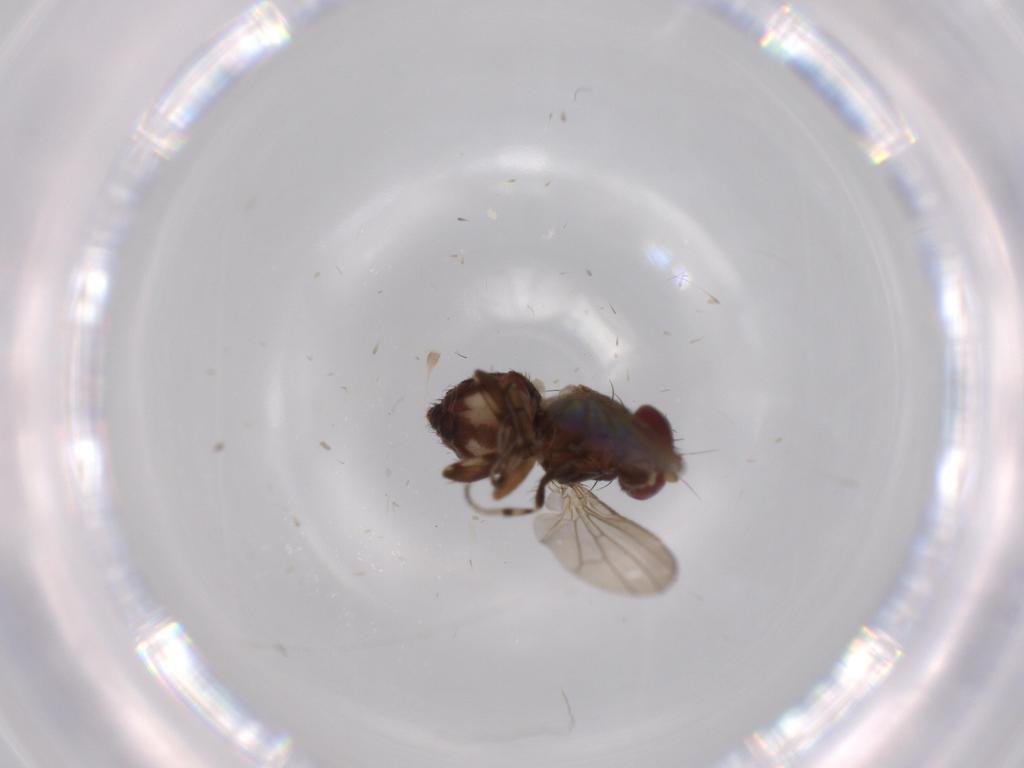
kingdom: Animalia
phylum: Arthropoda
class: Insecta
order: Diptera
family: Heleomyzidae
